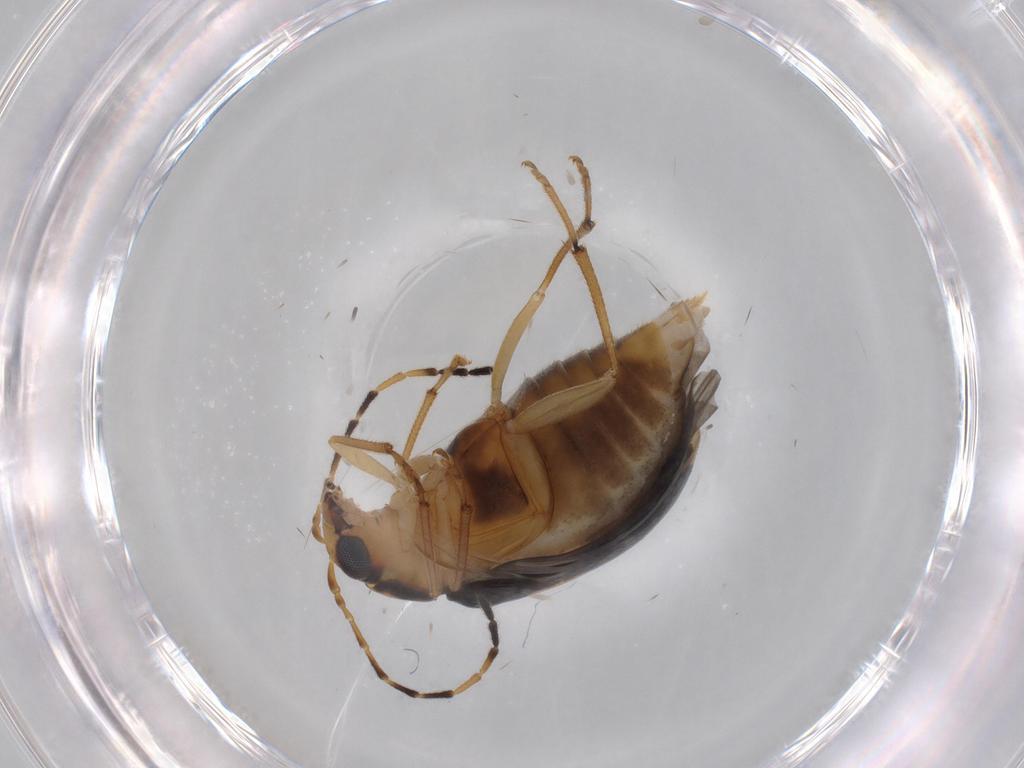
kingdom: Animalia
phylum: Arthropoda
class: Insecta
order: Coleoptera
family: Chrysomelidae
